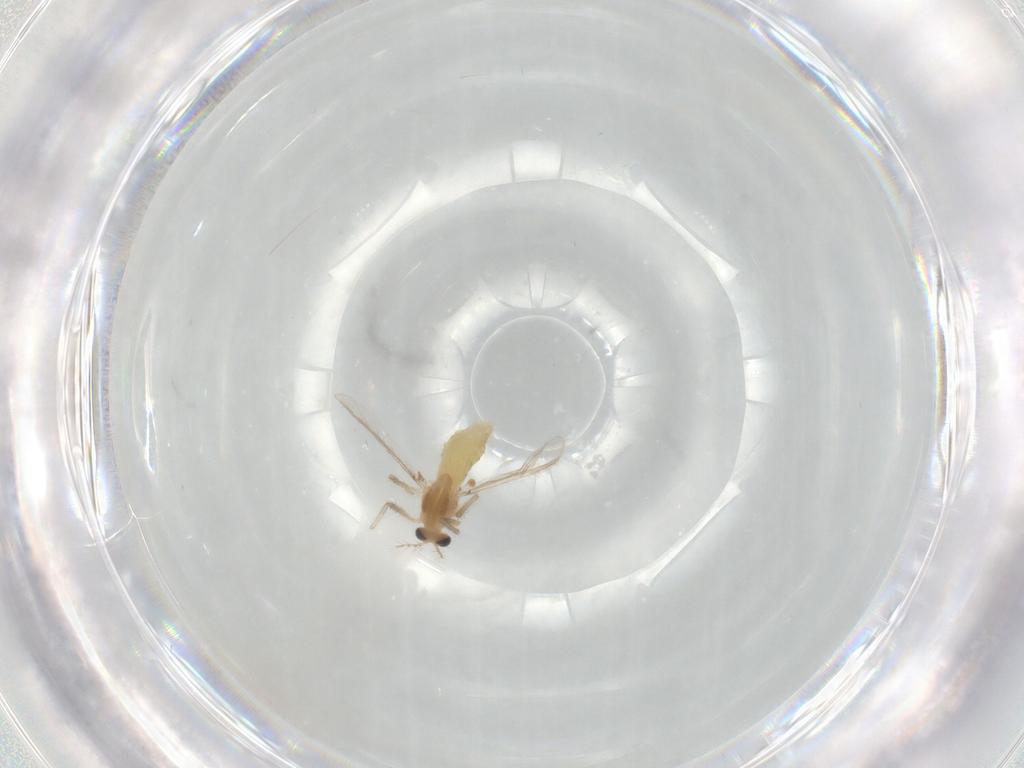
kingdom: Animalia
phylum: Arthropoda
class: Insecta
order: Diptera
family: Chironomidae
